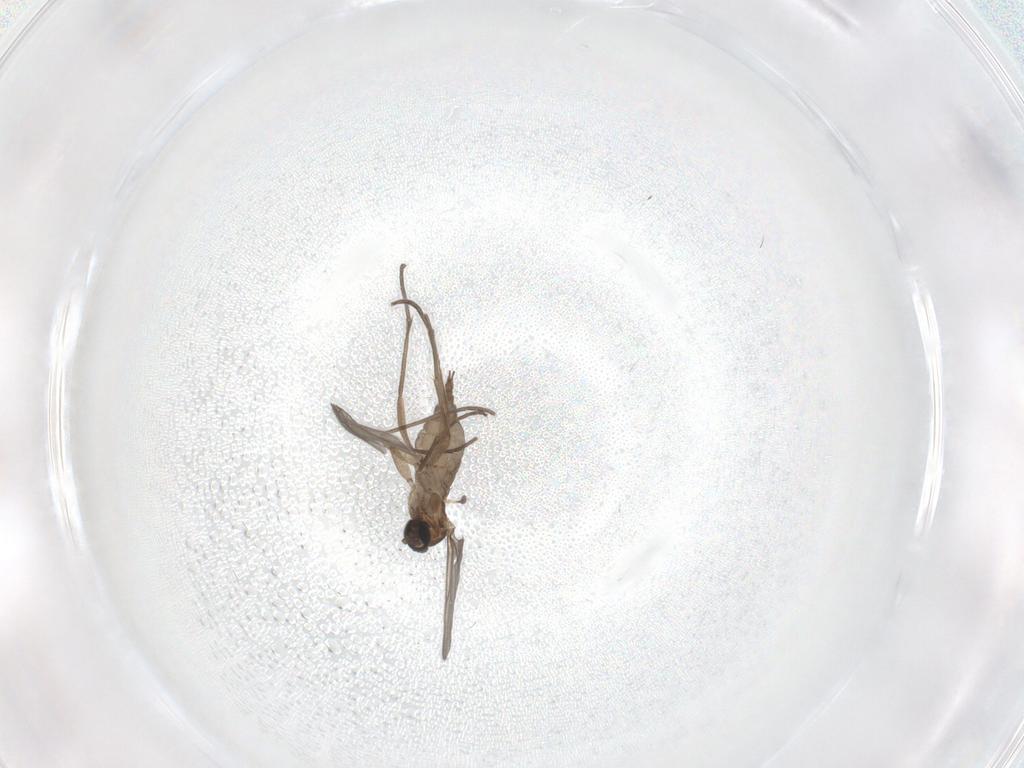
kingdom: Animalia
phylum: Arthropoda
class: Insecta
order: Diptera
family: Sciaridae
